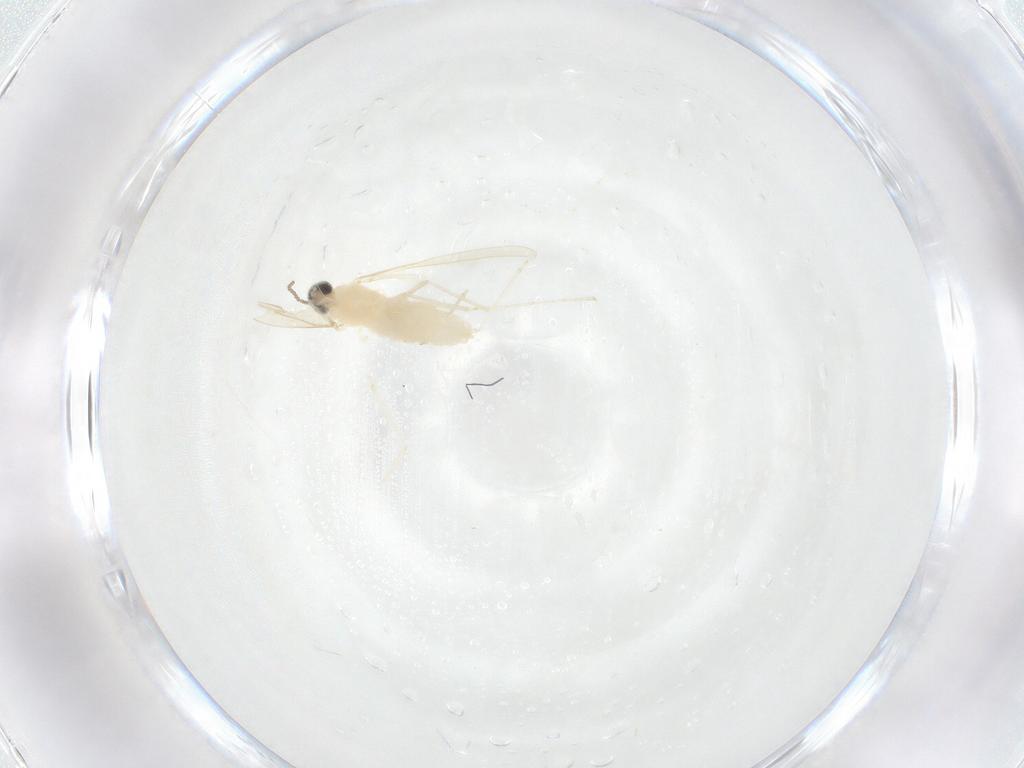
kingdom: Animalia
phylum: Arthropoda
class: Insecta
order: Diptera
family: Cecidomyiidae
